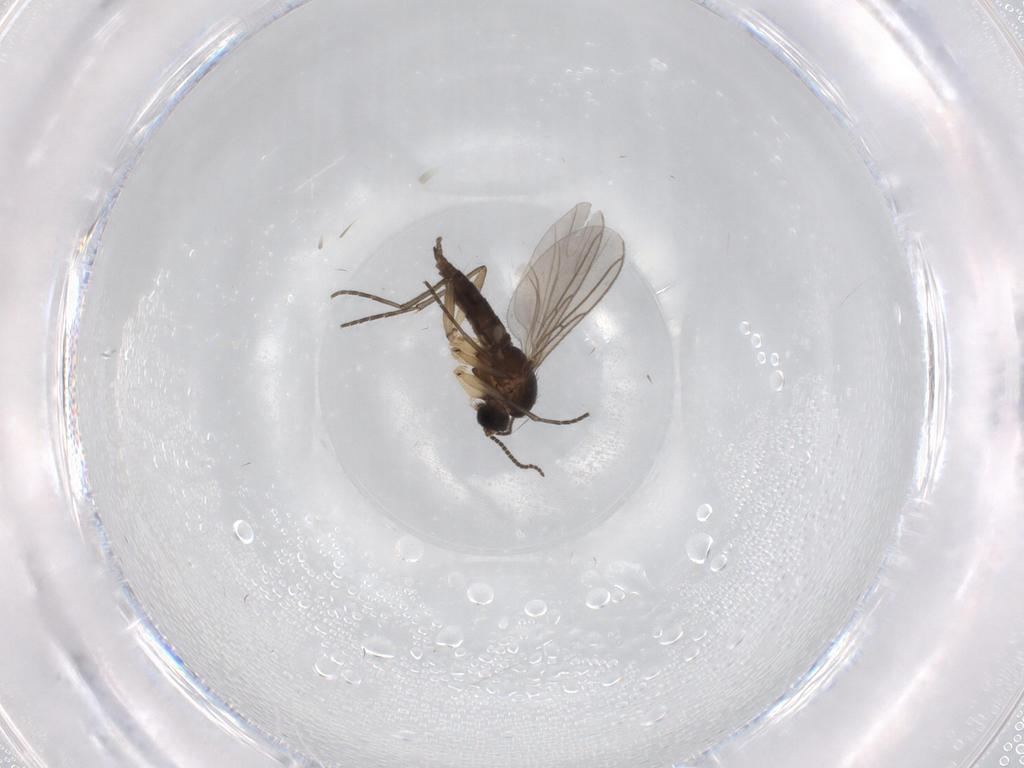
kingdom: Animalia
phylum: Arthropoda
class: Insecta
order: Diptera
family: Sciaridae
